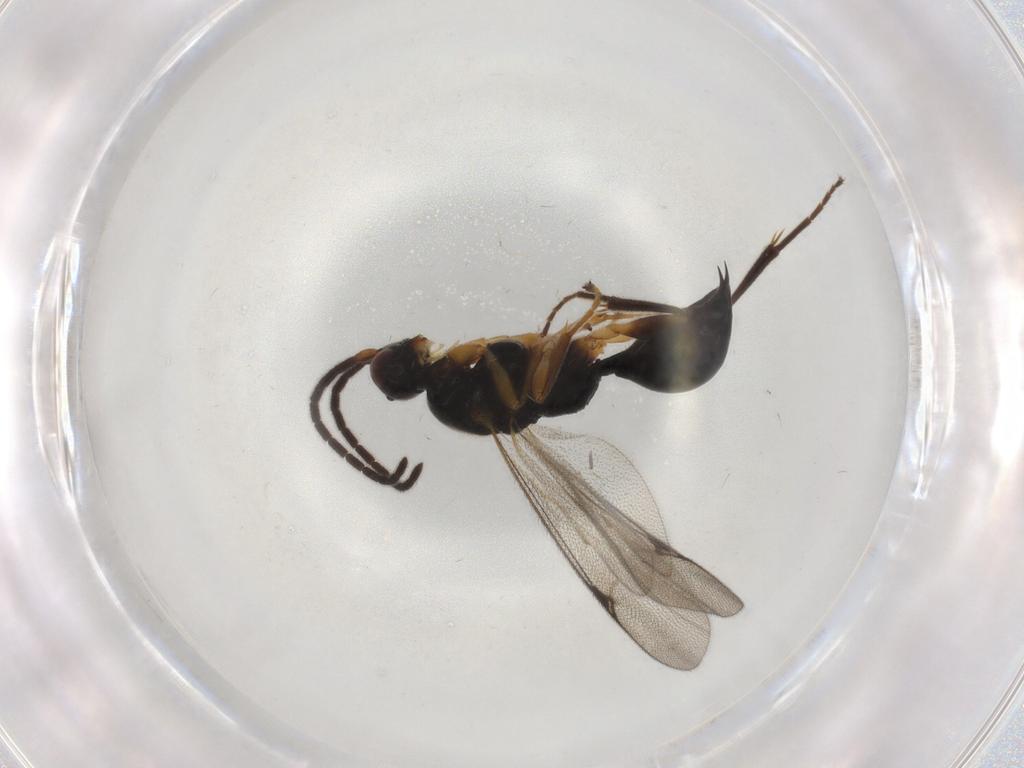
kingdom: Animalia
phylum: Arthropoda
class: Insecta
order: Hymenoptera
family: Proctotrupidae
